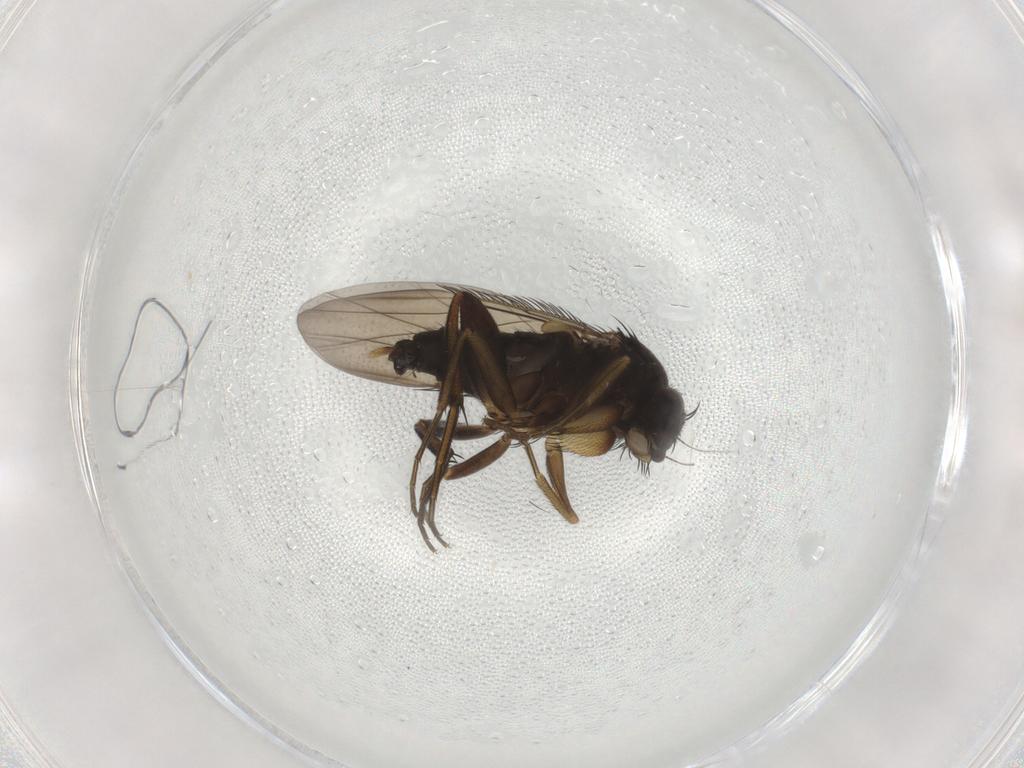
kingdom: Animalia
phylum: Arthropoda
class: Insecta
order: Diptera
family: Phoridae
